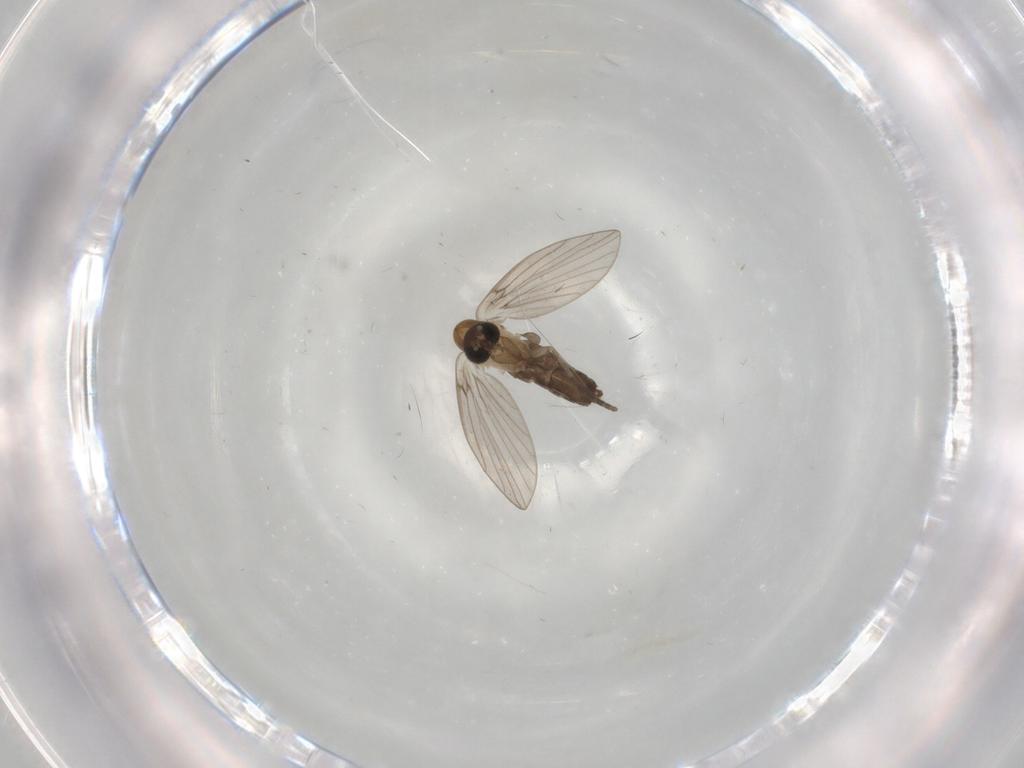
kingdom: Animalia
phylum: Arthropoda
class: Insecta
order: Diptera
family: Psychodidae
